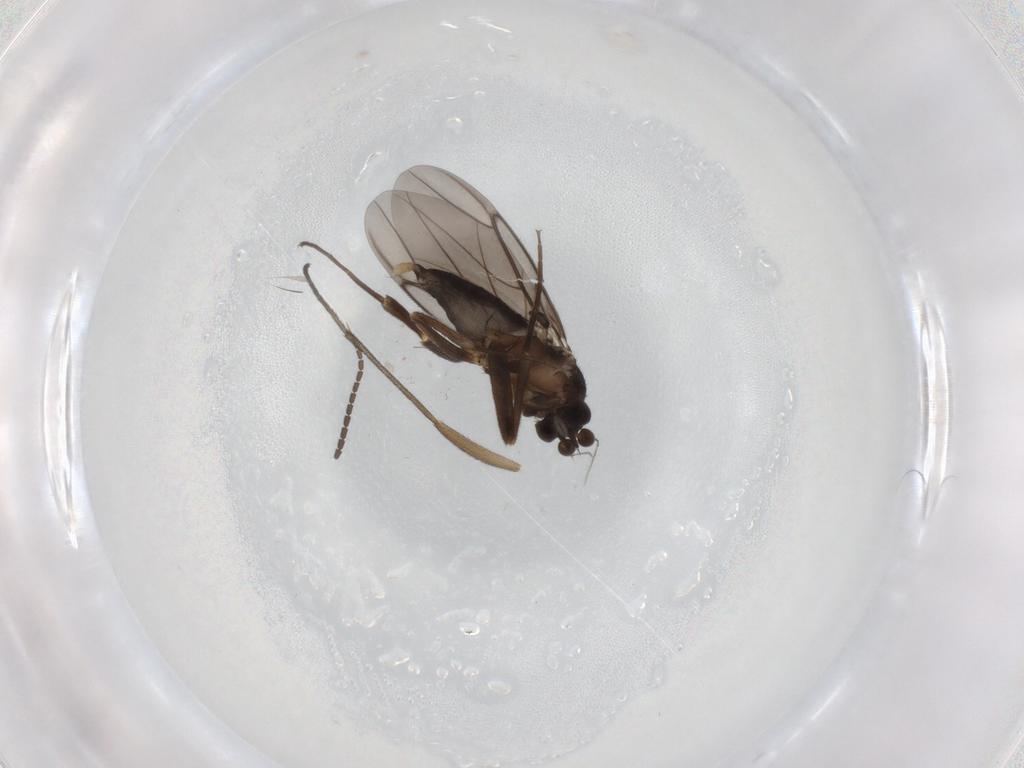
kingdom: Animalia
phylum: Arthropoda
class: Insecta
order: Diptera
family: Sciaridae
